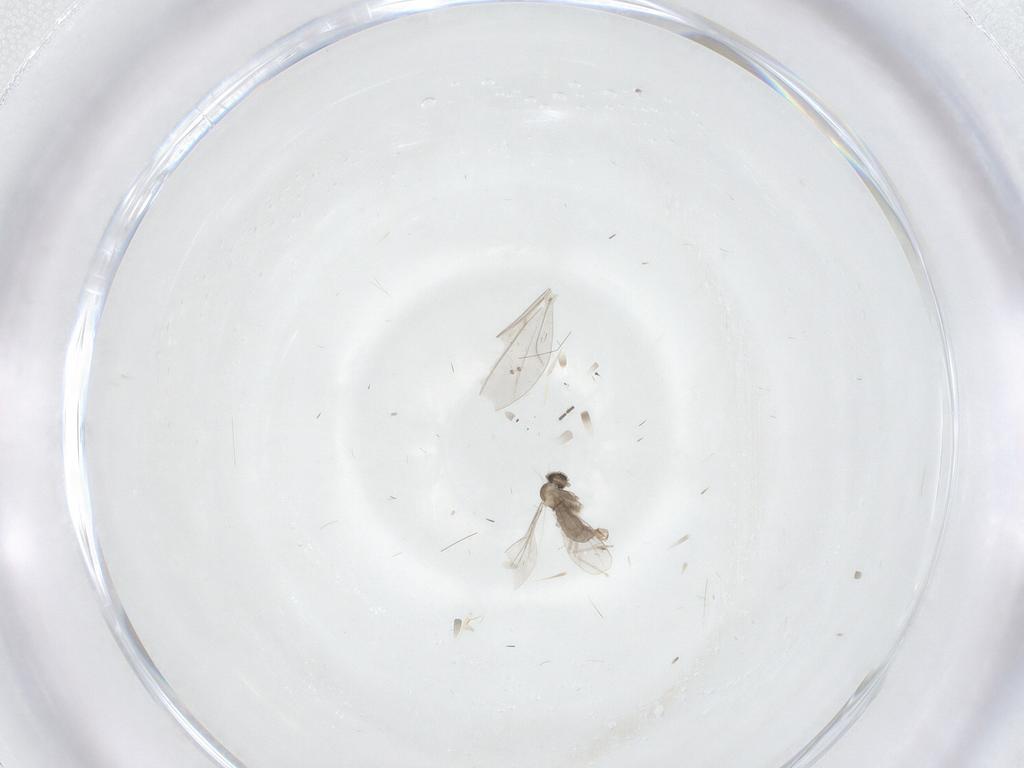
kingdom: Animalia
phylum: Arthropoda
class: Insecta
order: Diptera
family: Cecidomyiidae
